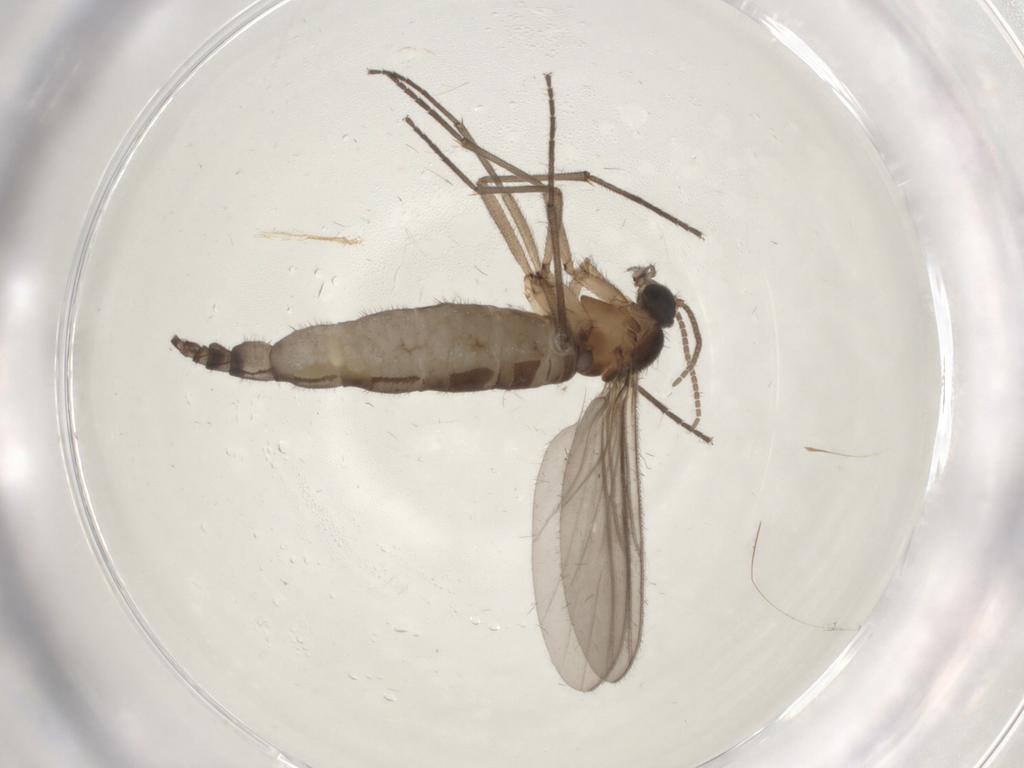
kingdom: Animalia
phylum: Arthropoda
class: Insecta
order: Diptera
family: Ceratopogonidae
